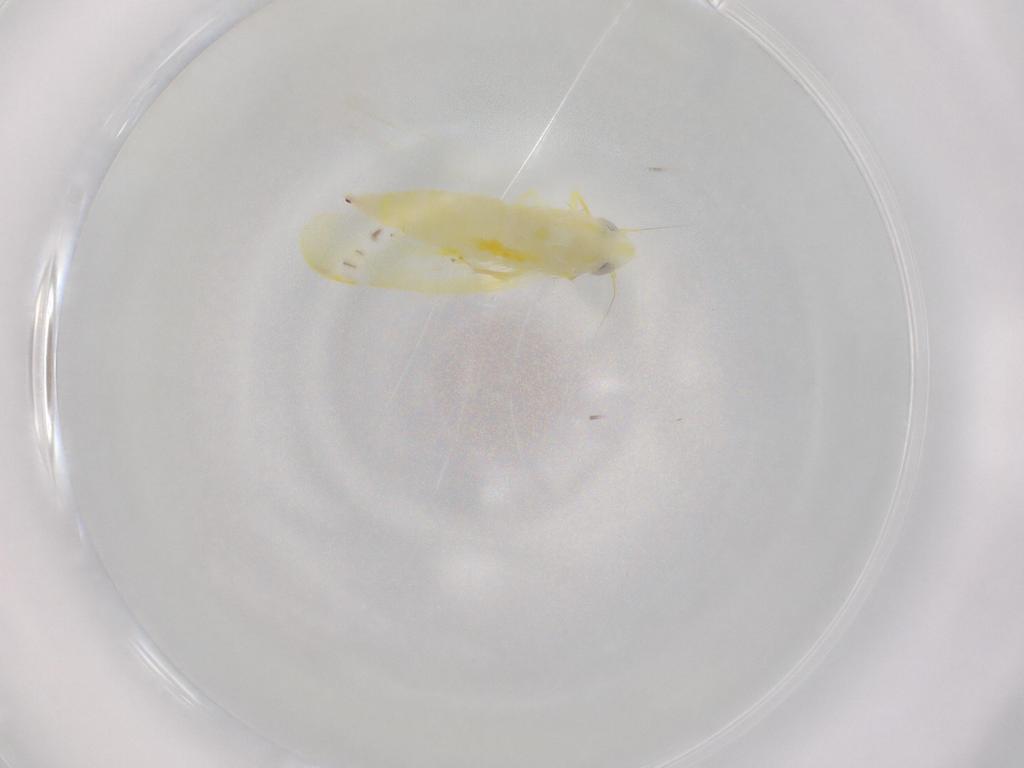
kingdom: Animalia
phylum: Arthropoda
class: Insecta
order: Hemiptera
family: Cicadellidae
